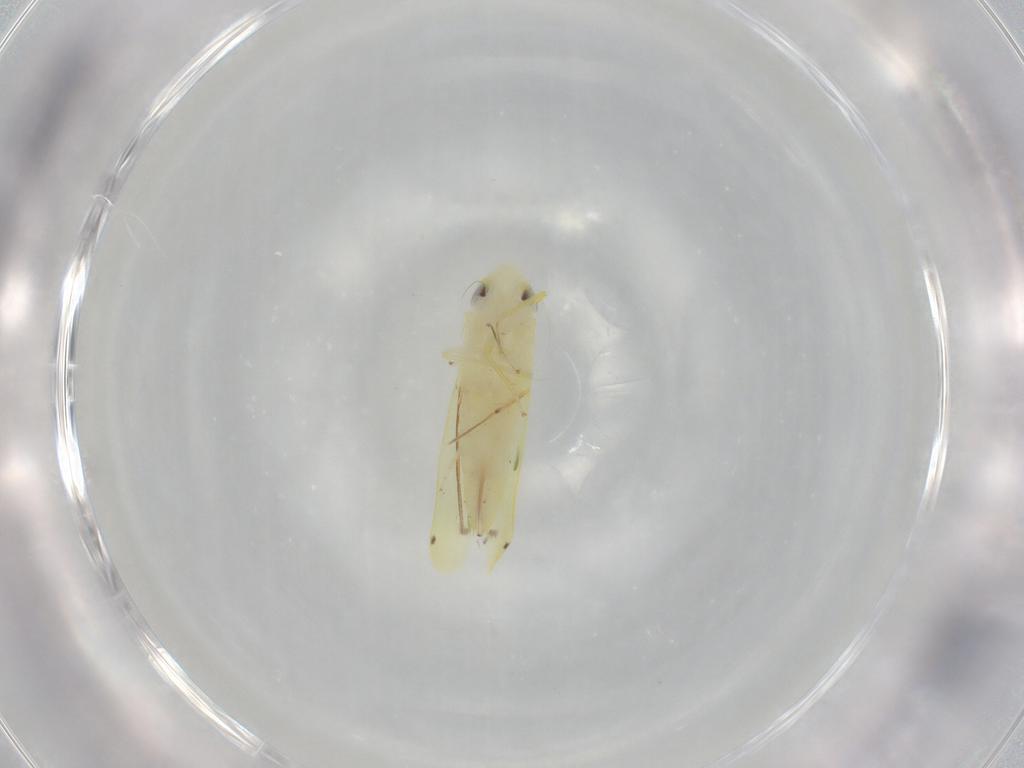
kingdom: Animalia
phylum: Arthropoda
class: Insecta
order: Hemiptera
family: Cicadellidae
